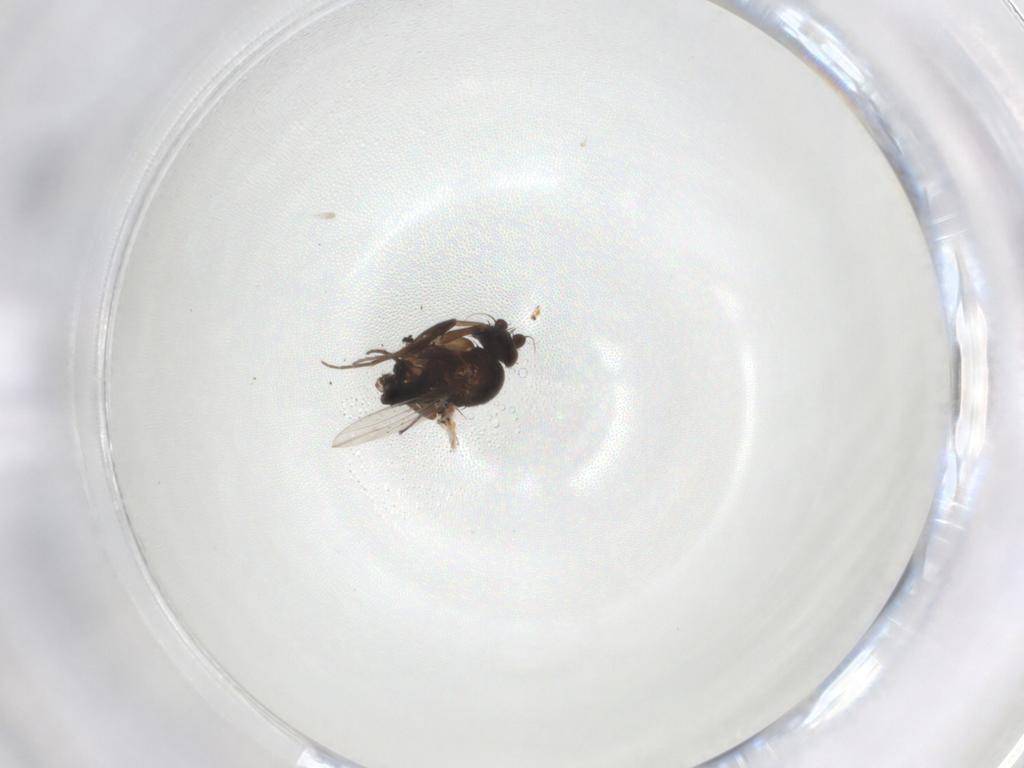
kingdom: Animalia
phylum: Arthropoda
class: Insecta
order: Diptera
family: Phoridae
